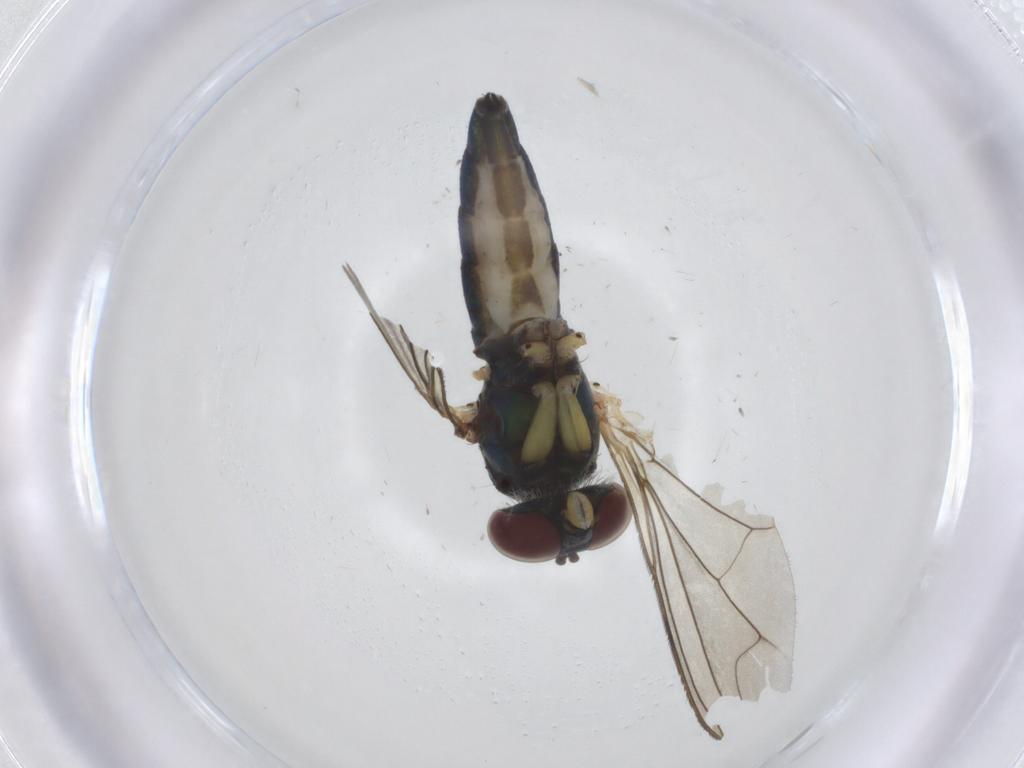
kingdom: Animalia
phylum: Arthropoda
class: Insecta
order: Diptera
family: Dolichopodidae
